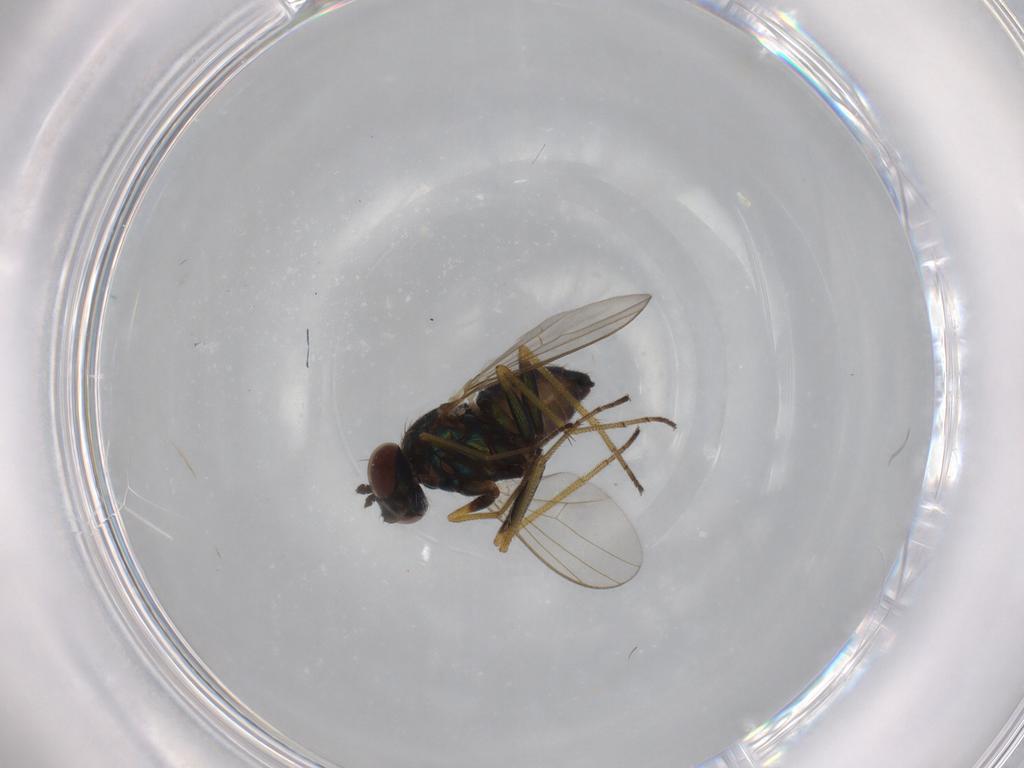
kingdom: Animalia
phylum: Arthropoda
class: Insecta
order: Diptera
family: Dolichopodidae
